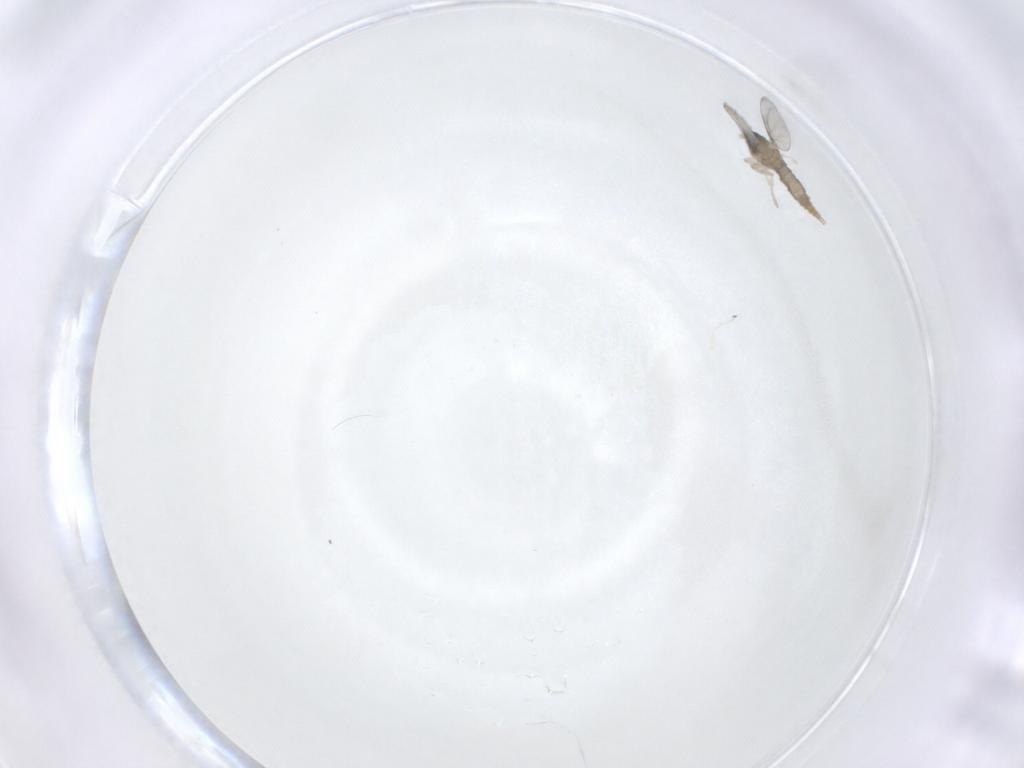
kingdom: Animalia
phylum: Arthropoda
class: Insecta
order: Diptera
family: Cecidomyiidae
